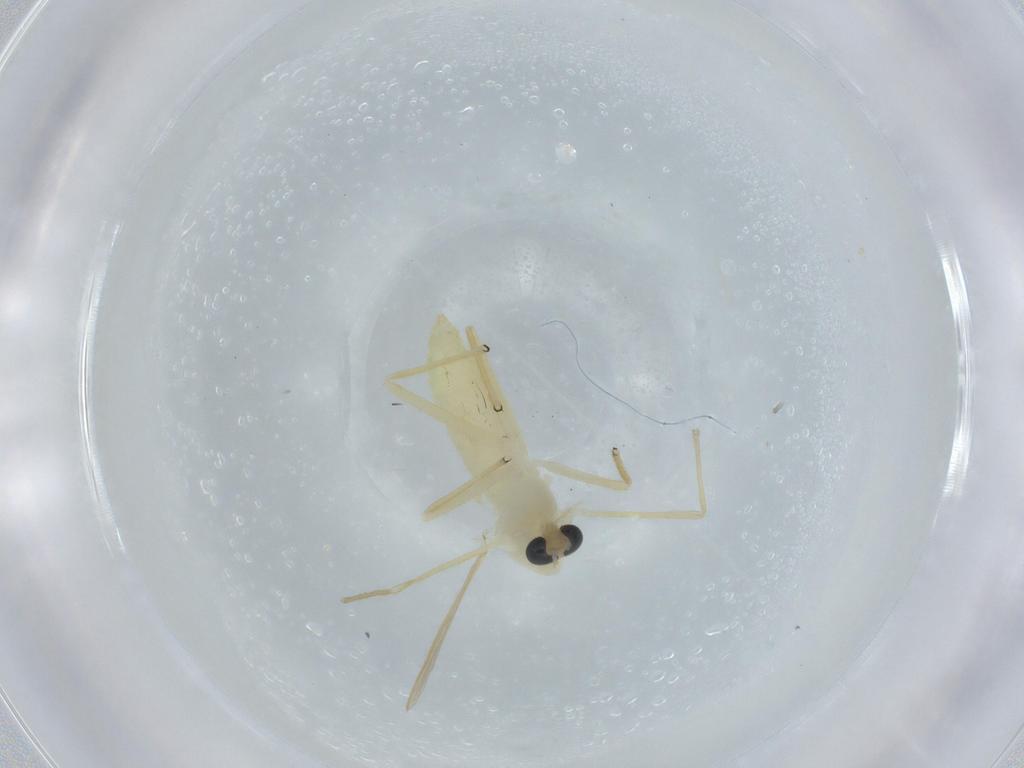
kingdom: Animalia
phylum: Arthropoda
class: Insecta
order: Diptera
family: Chironomidae
